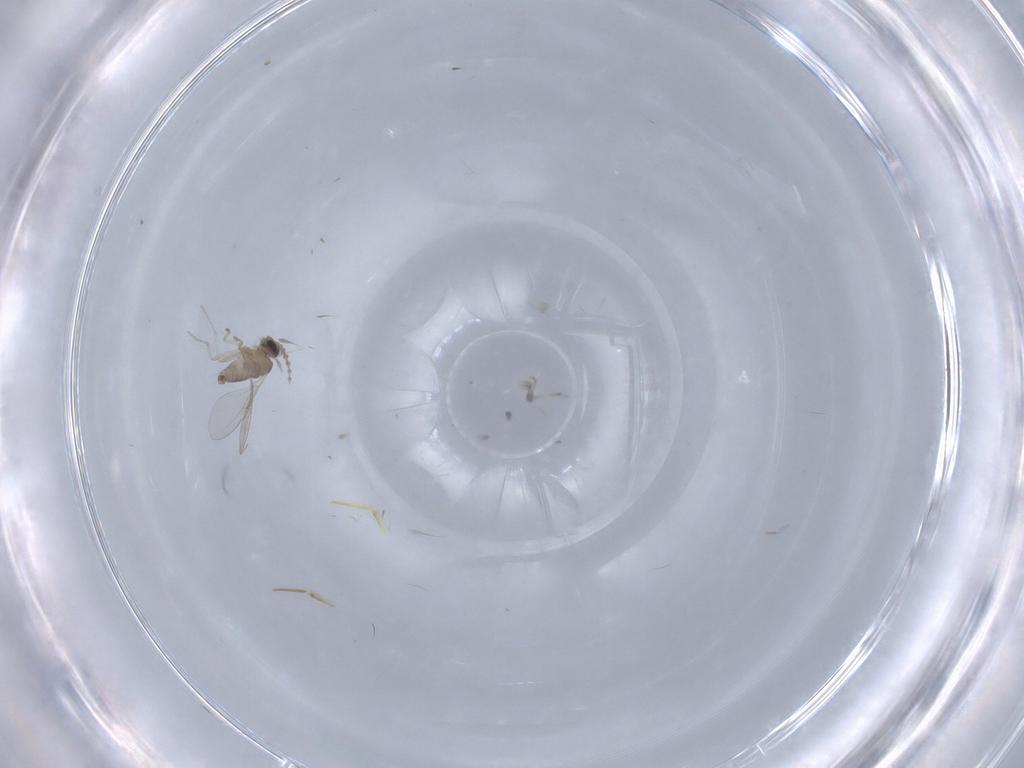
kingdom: Animalia
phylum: Arthropoda
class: Insecta
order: Diptera
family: Cecidomyiidae
